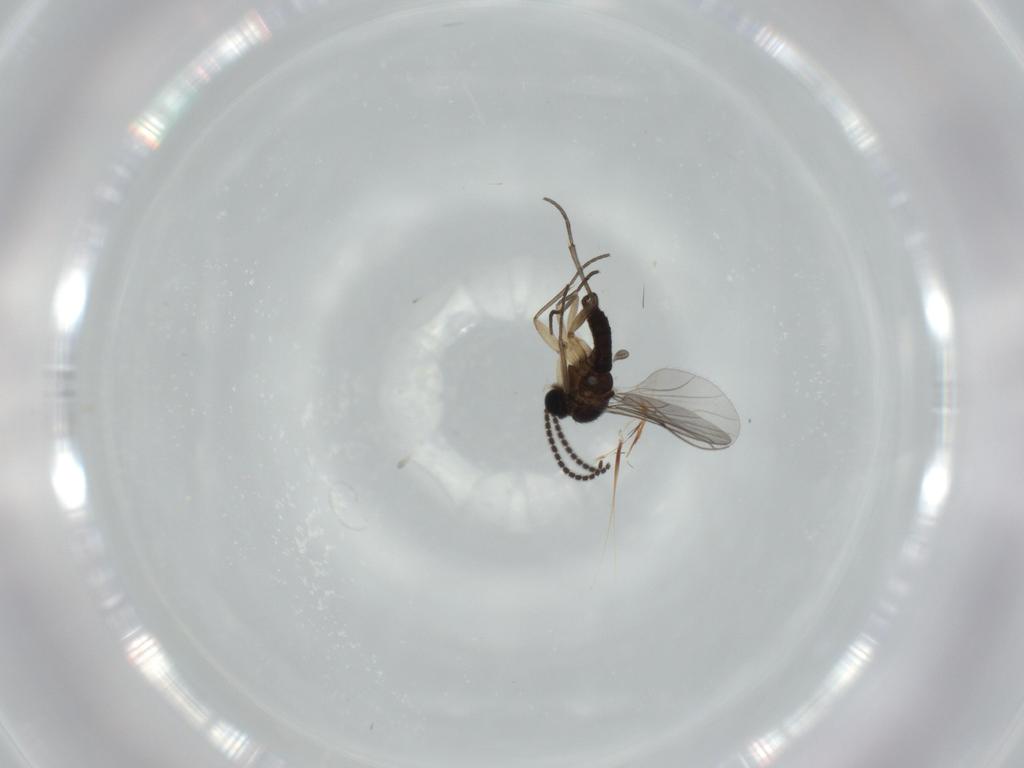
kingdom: Animalia
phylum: Arthropoda
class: Insecta
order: Diptera
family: Sciaridae
